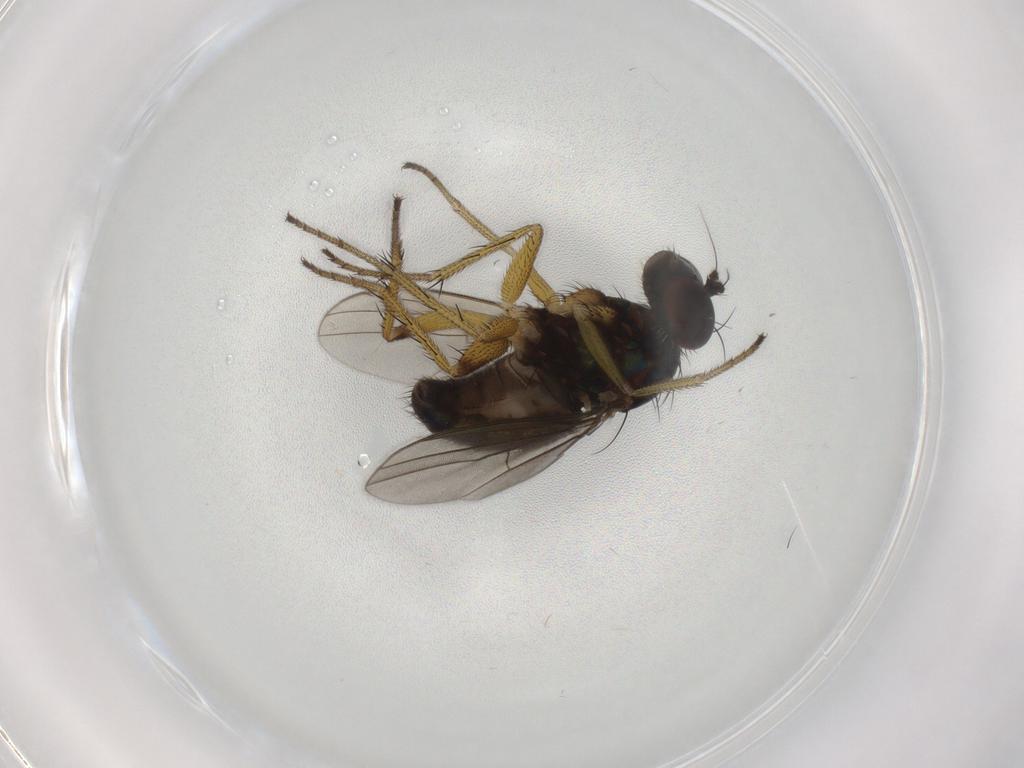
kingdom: Animalia
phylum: Arthropoda
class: Insecta
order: Diptera
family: Dolichopodidae
